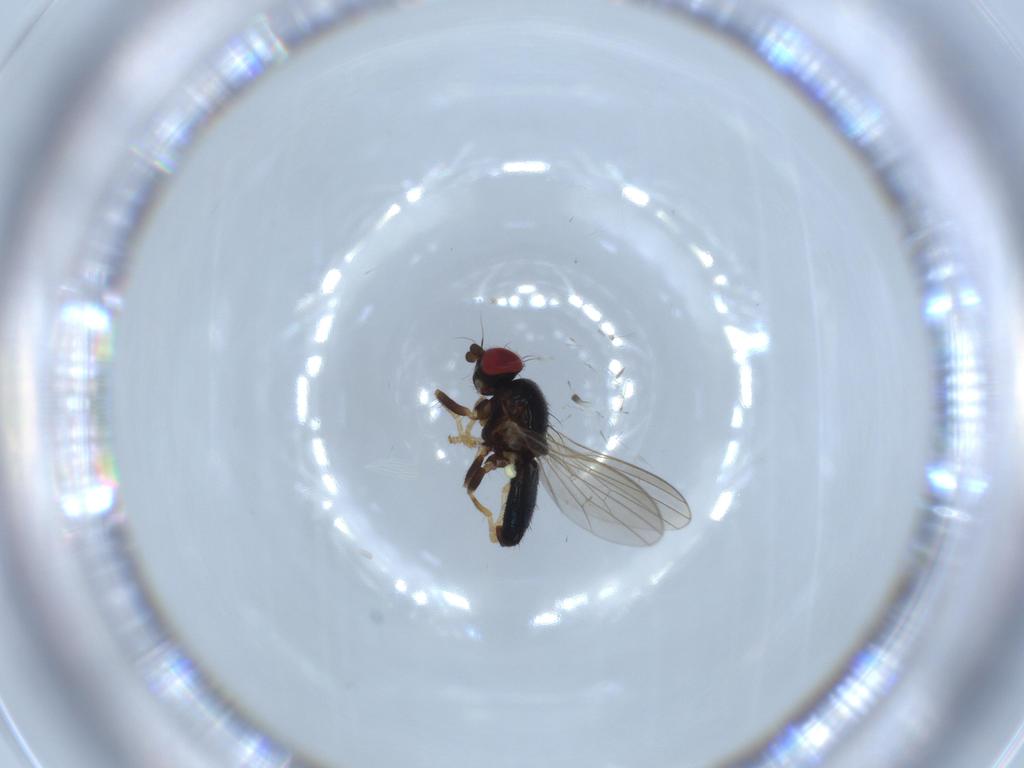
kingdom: Animalia
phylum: Arthropoda
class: Insecta
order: Diptera
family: Chamaemyiidae
